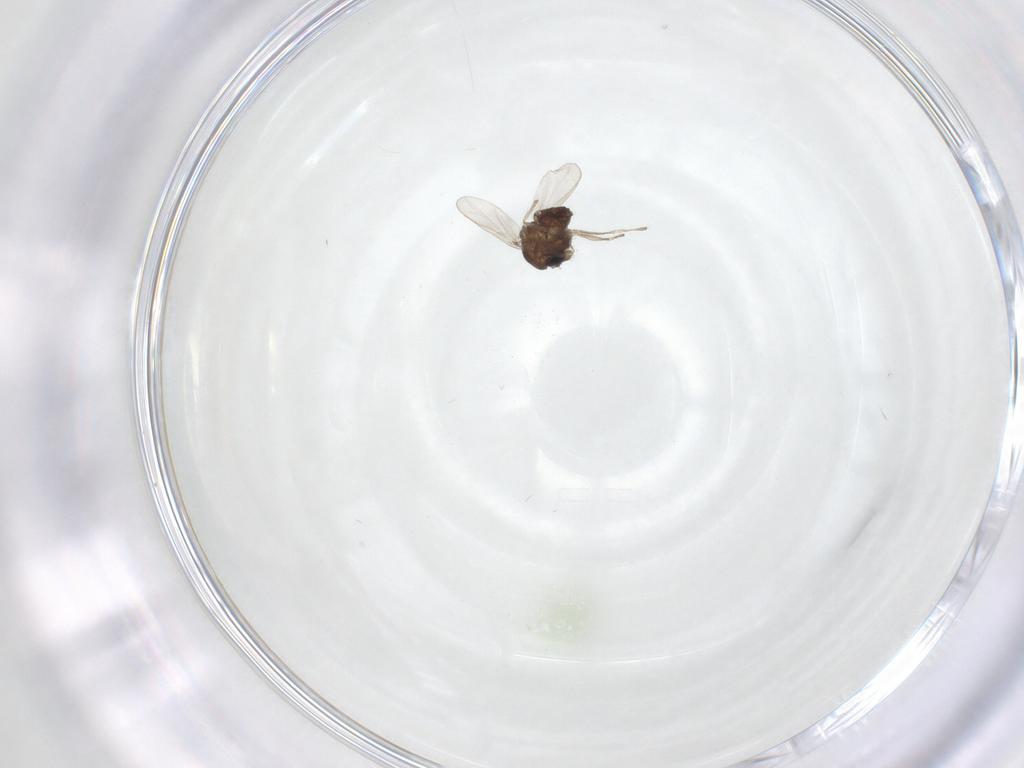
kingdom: Animalia
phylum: Arthropoda
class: Insecta
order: Diptera
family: Chironomidae
